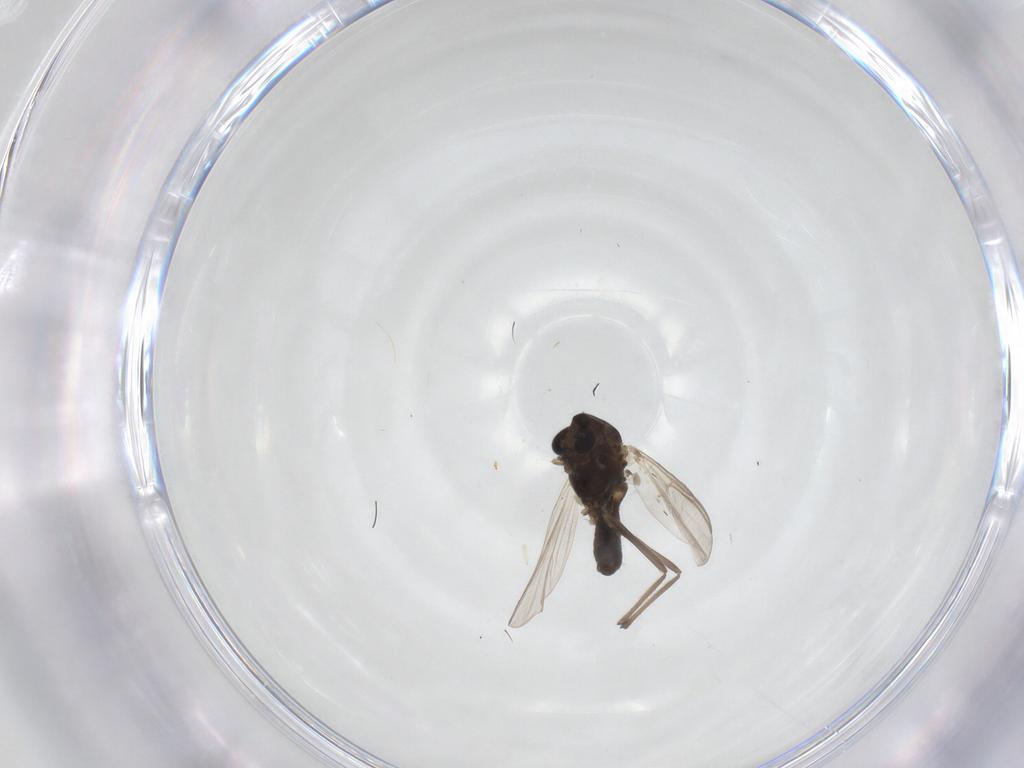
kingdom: Animalia
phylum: Arthropoda
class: Insecta
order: Diptera
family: Chironomidae
